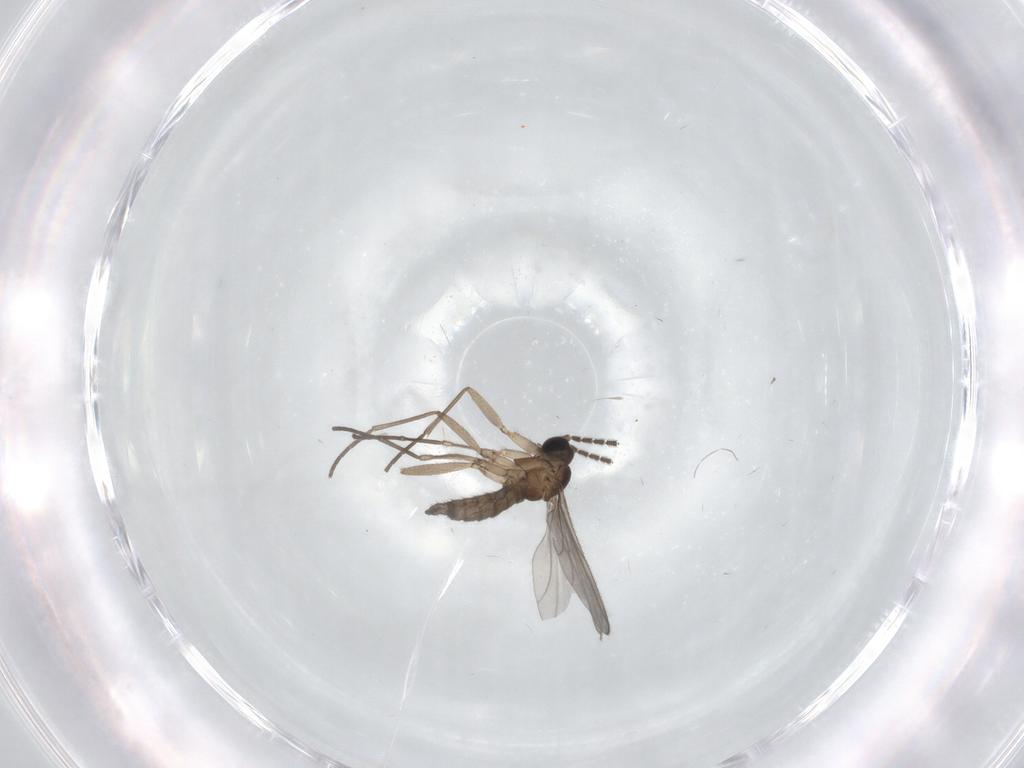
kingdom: Animalia
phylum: Arthropoda
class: Insecta
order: Diptera
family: Sciaridae
